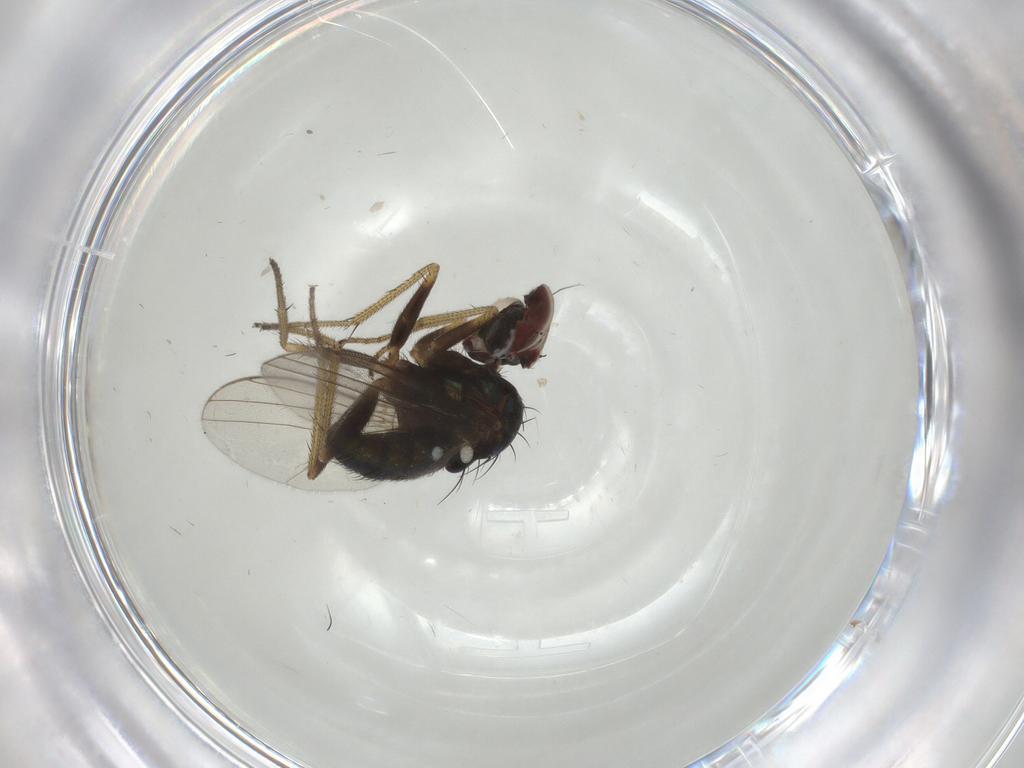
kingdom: Animalia
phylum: Arthropoda
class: Insecta
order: Diptera
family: Dolichopodidae
